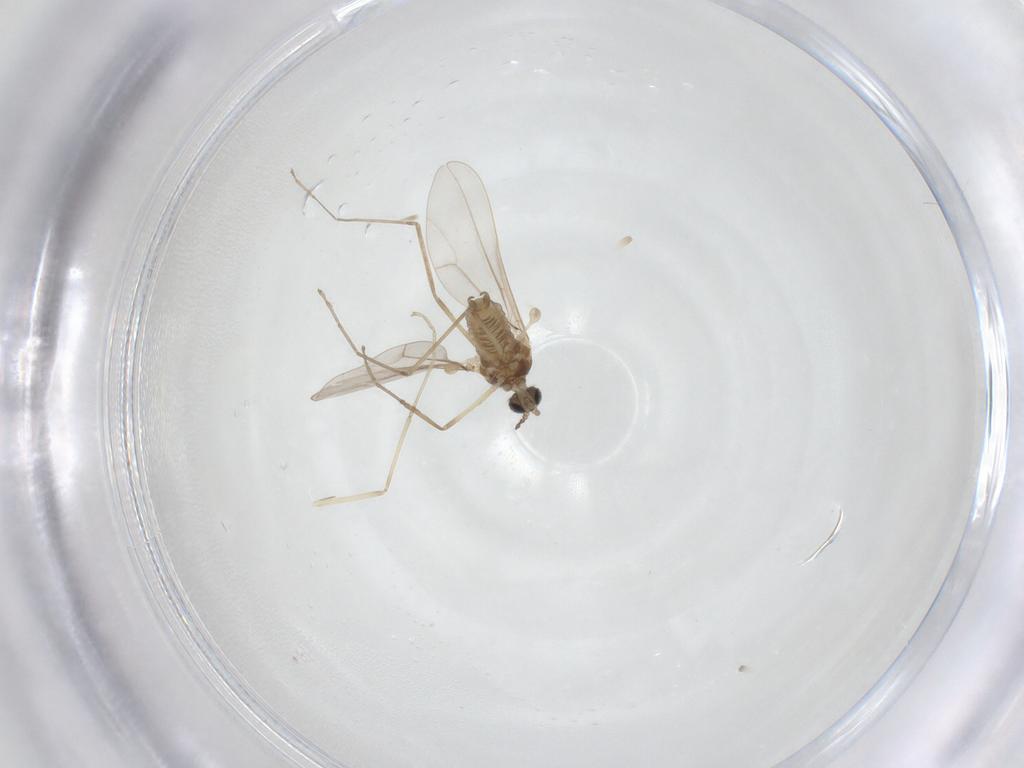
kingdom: Animalia
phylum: Arthropoda
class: Insecta
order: Diptera
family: Cecidomyiidae
